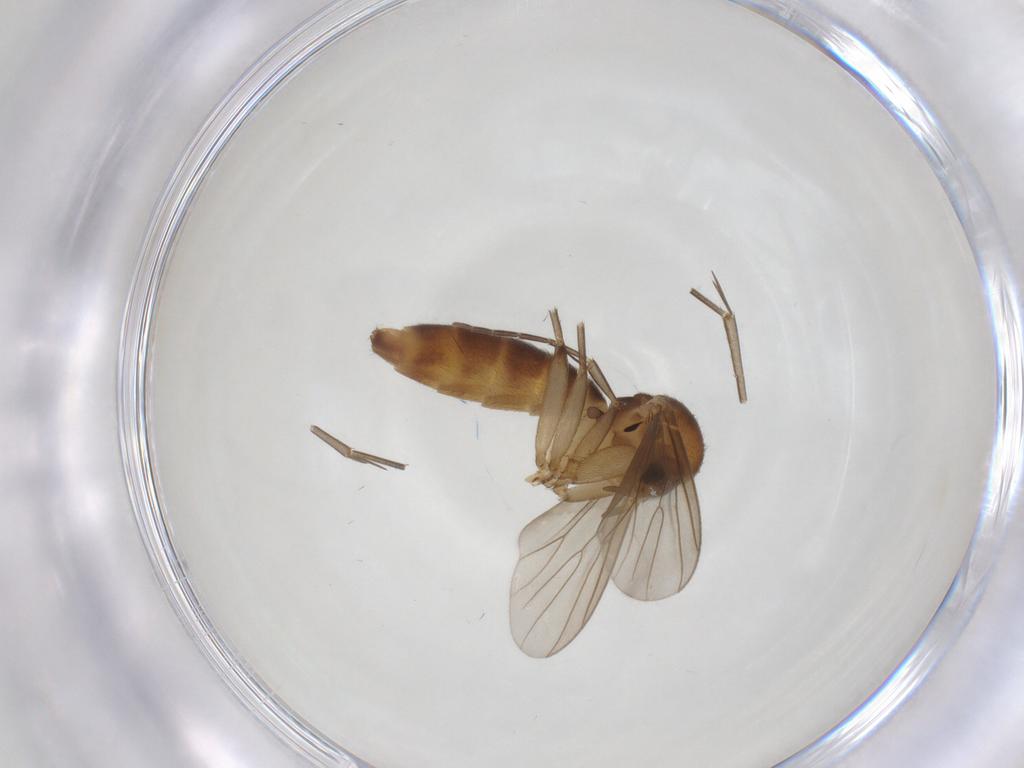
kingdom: Animalia
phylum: Arthropoda
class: Insecta
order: Diptera
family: Mycetophilidae
